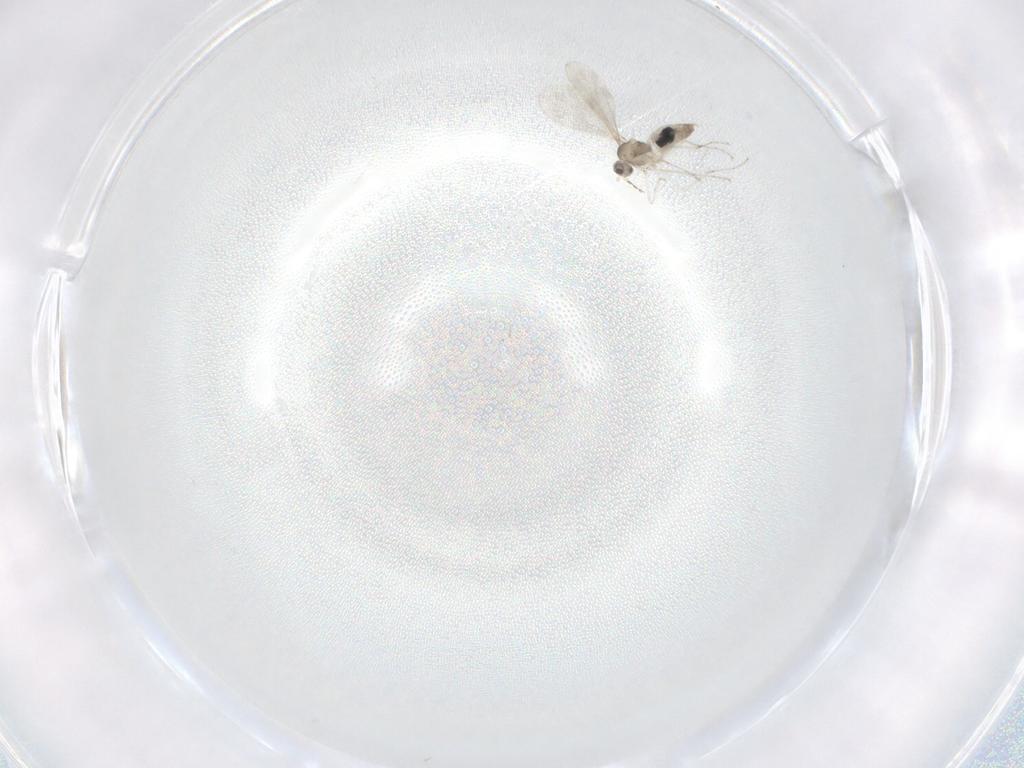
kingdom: Animalia
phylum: Arthropoda
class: Insecta
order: Diptera
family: Cecidomyiidae
